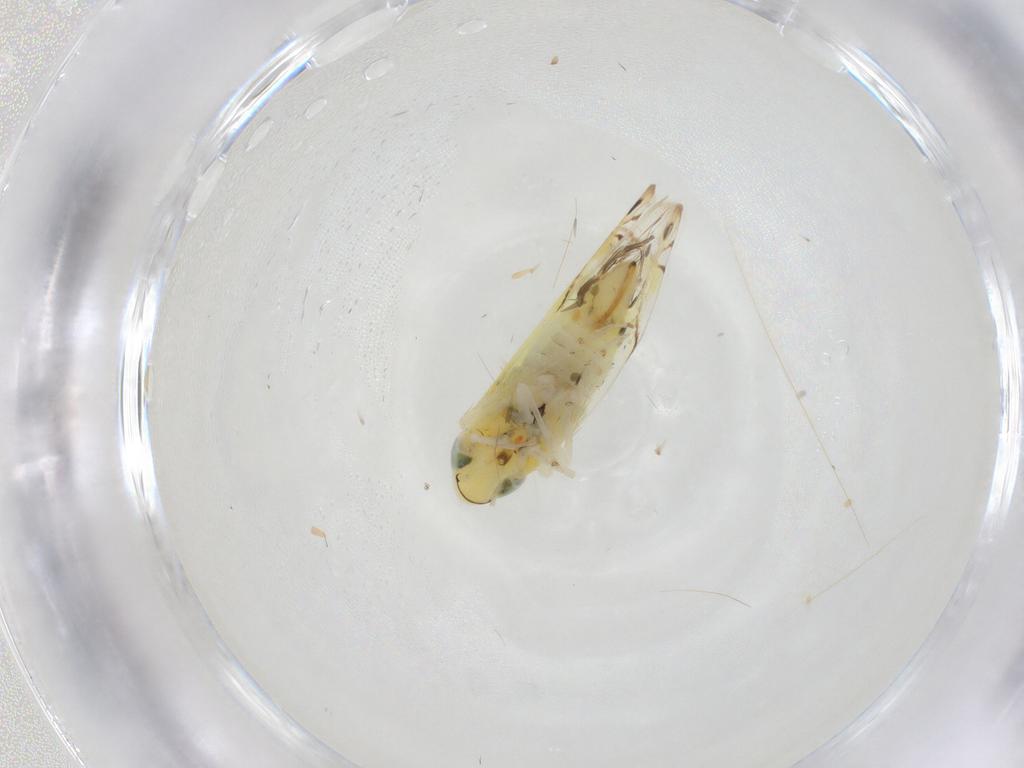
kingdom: Animalia
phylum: Arthropoda
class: Insecta
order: Hemiptera
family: Cicadellidae
